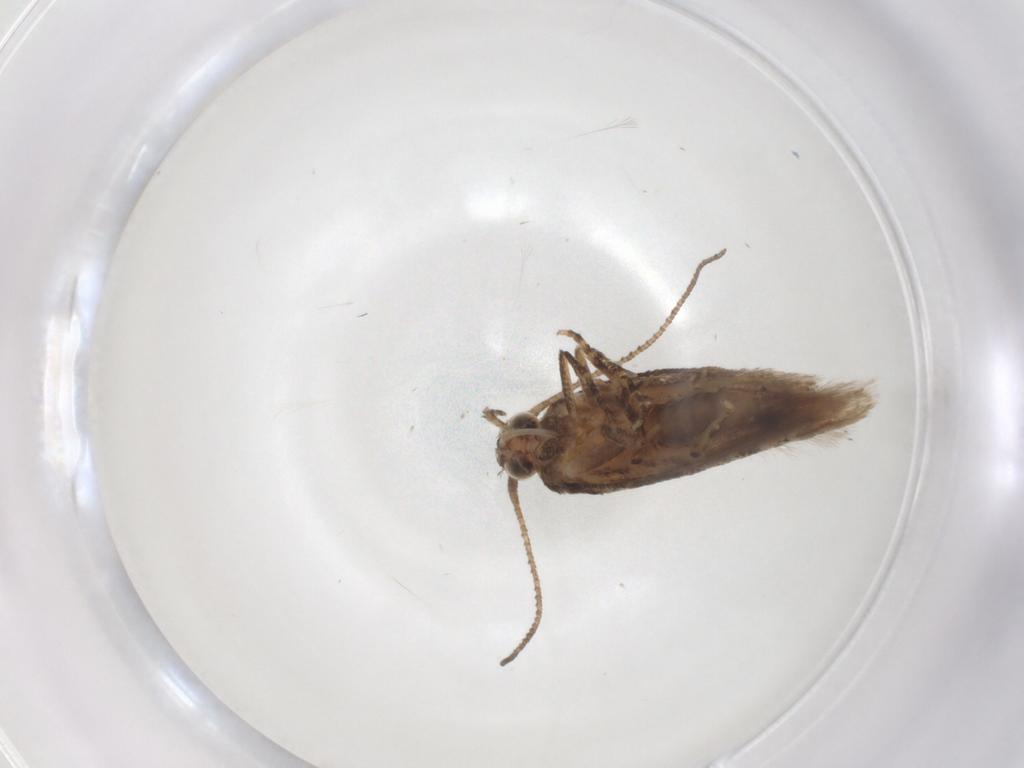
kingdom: Animalia
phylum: Arthropoda
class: Insecta
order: Lepidoptera
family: Gelechiidae
